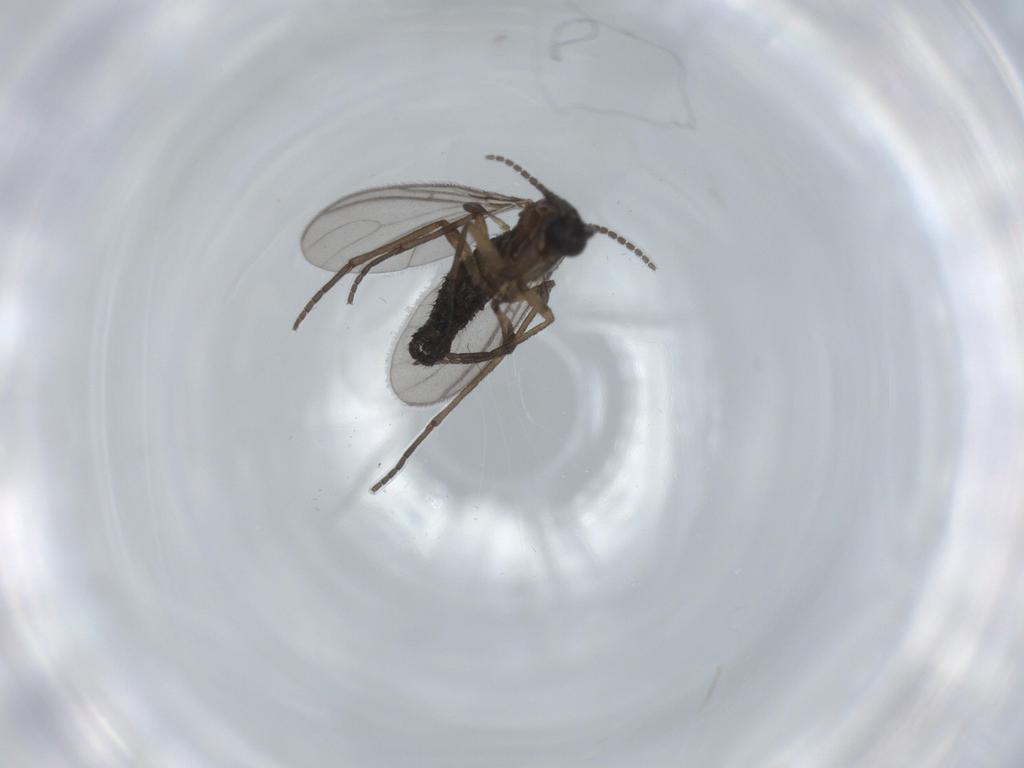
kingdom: Animalia
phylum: Arthropoda
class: Insecta
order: Diptera
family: Sciaridae
